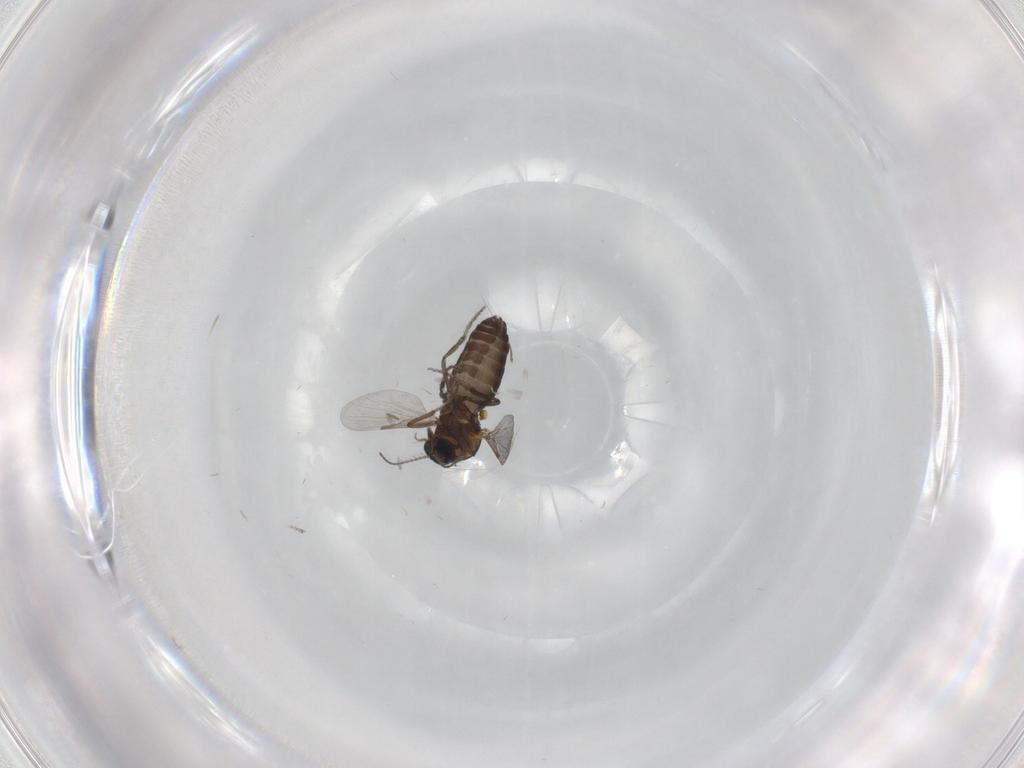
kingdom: Animalia
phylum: Arthropoda
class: Insecta
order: Diptera
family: Ceratopogonidae
